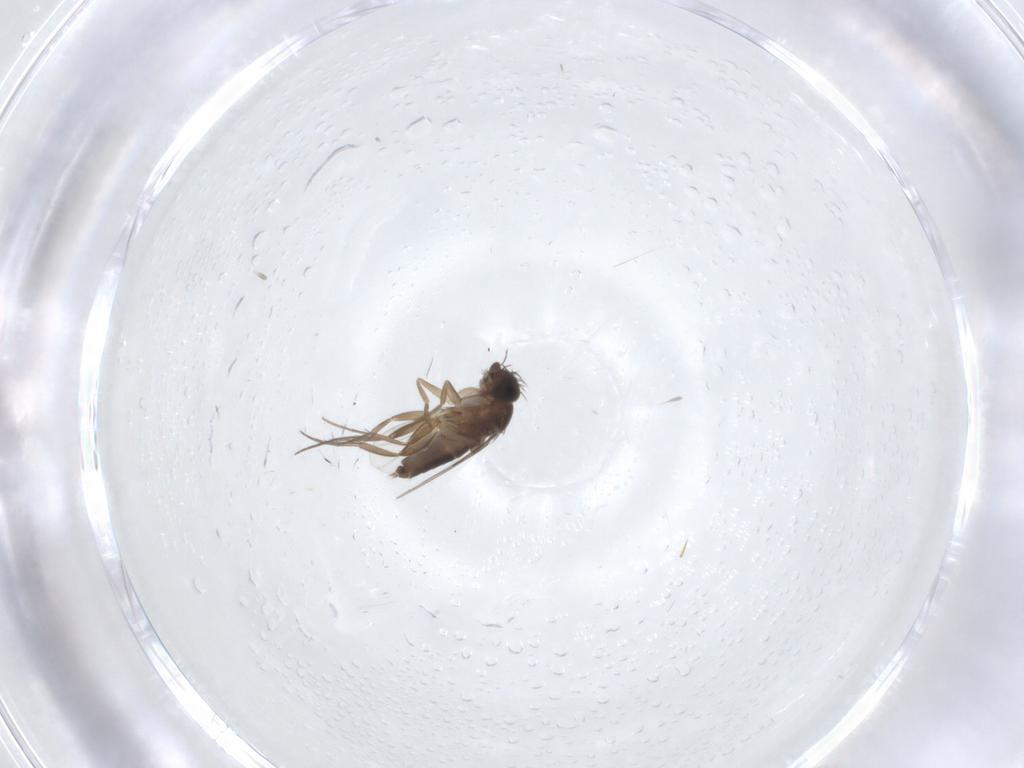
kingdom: Animalia
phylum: Arthropoda
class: Insecta
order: Diptera
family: Phoridae
